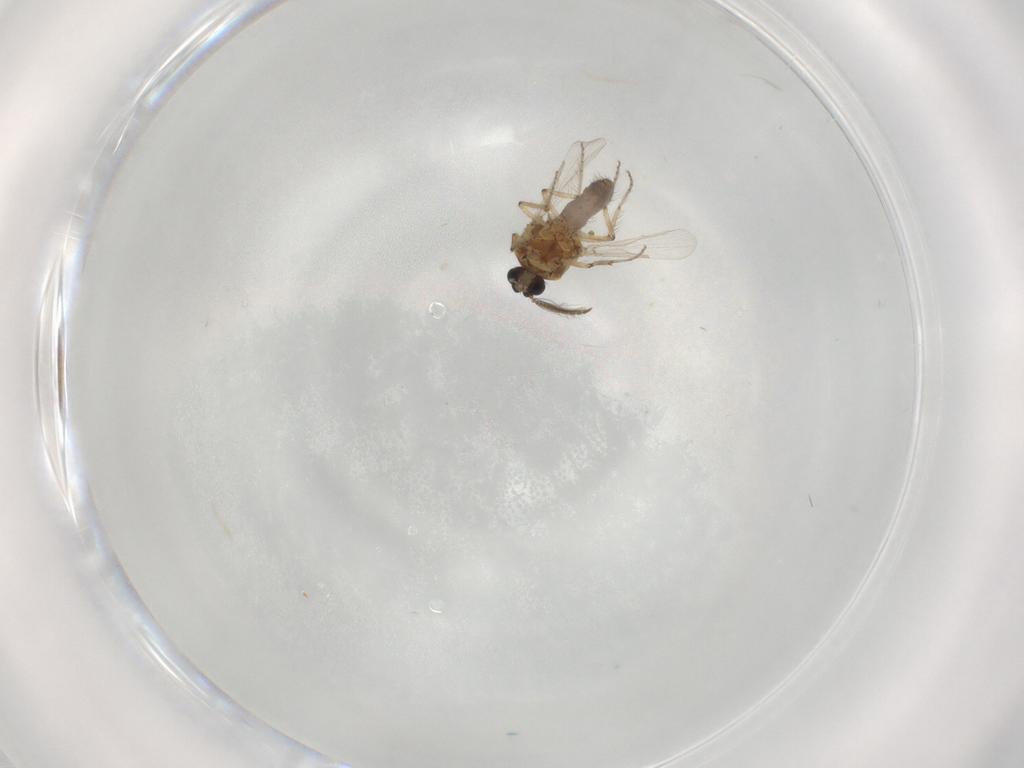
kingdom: Animalia
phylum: Arthropoda
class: Insecta
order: Diptera
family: Ceratopogonidae
